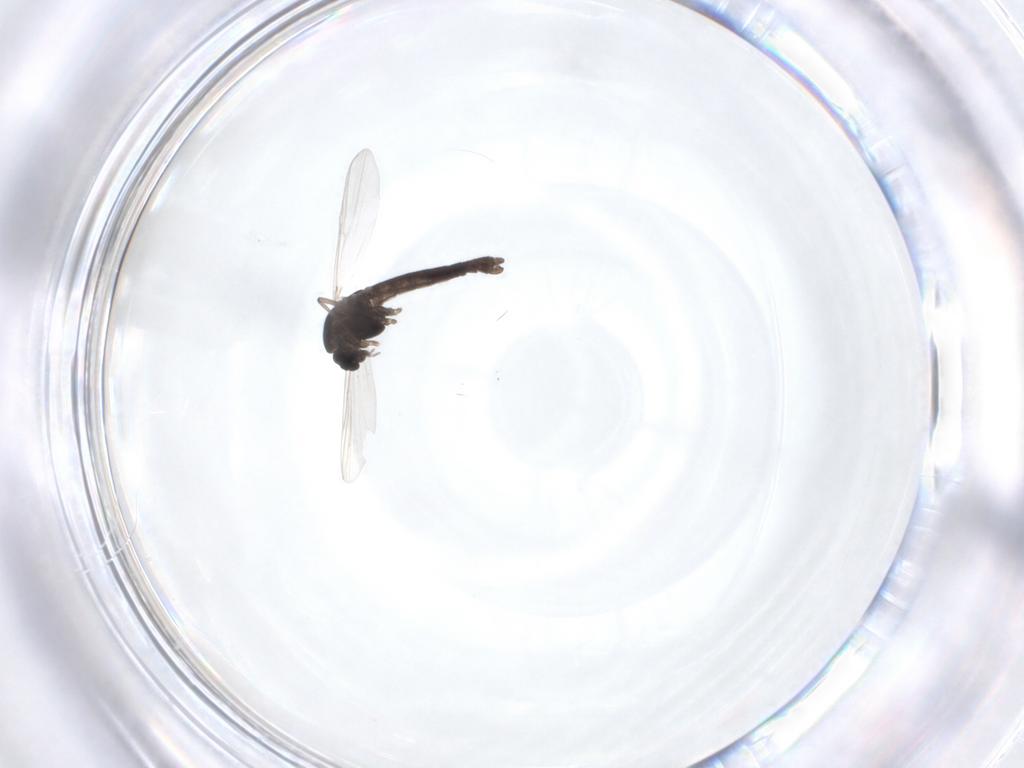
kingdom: Animalia
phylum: Arthropoda
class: Insecta
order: Diptera
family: Chironomidae
